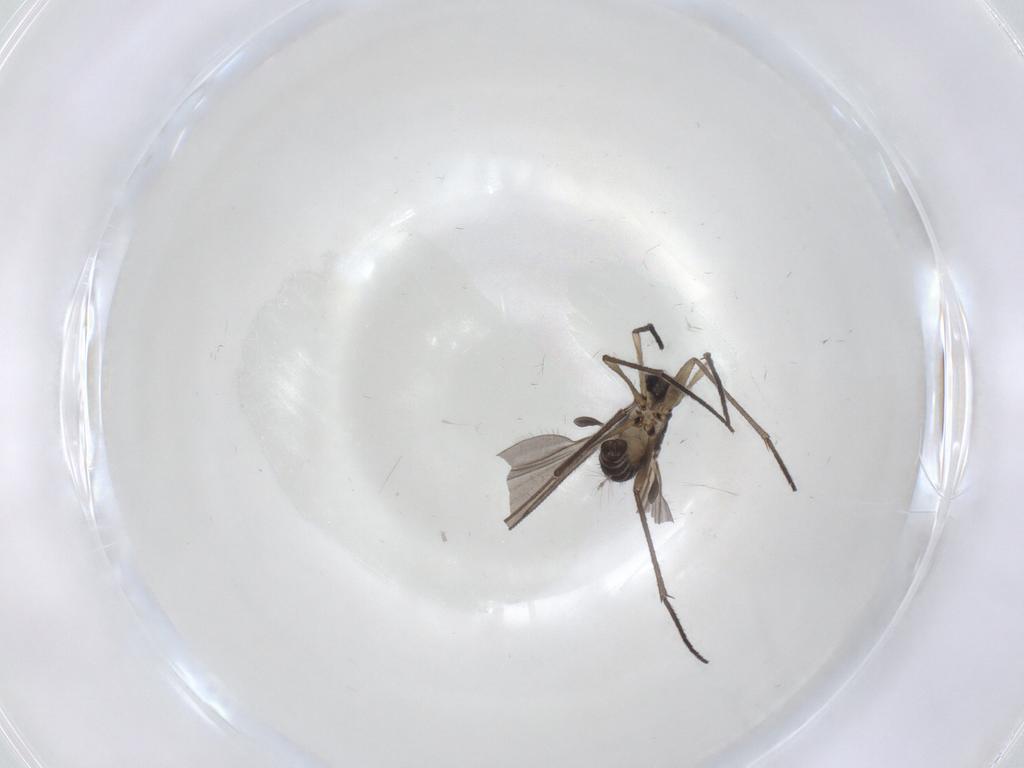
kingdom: Animalia
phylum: Arthropoda
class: Insecta
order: Diptera
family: Sciaridae
